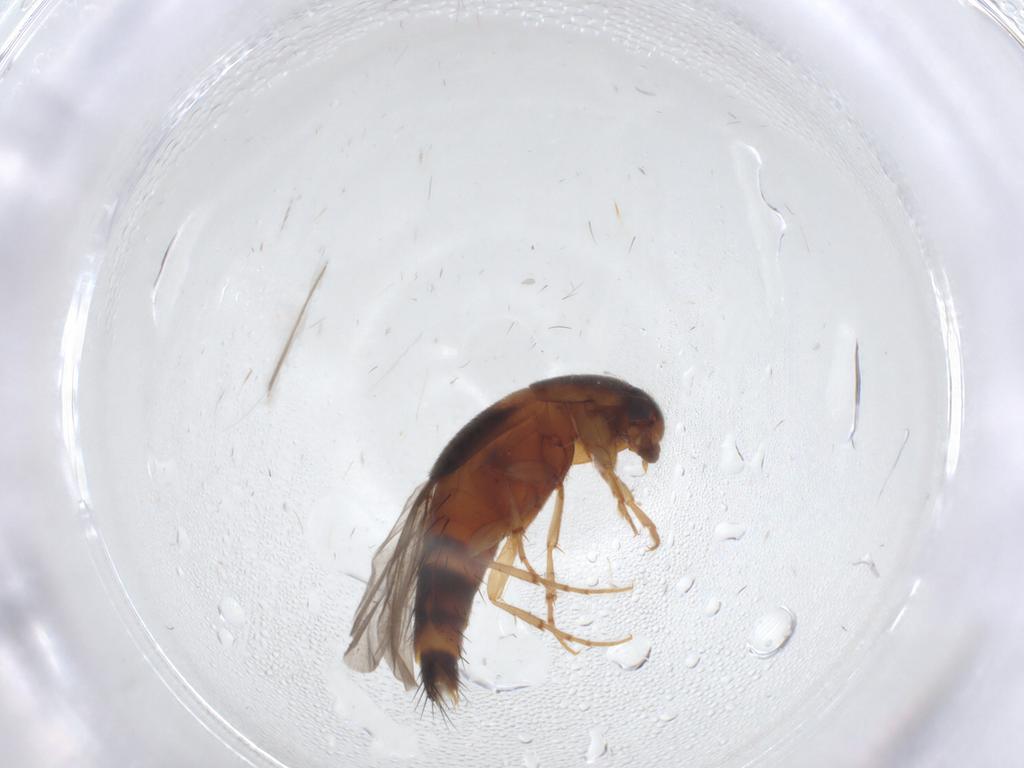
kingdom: Animalia
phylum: Arthropoda
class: Insecta
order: Coleoptera
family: Staphylinidae
